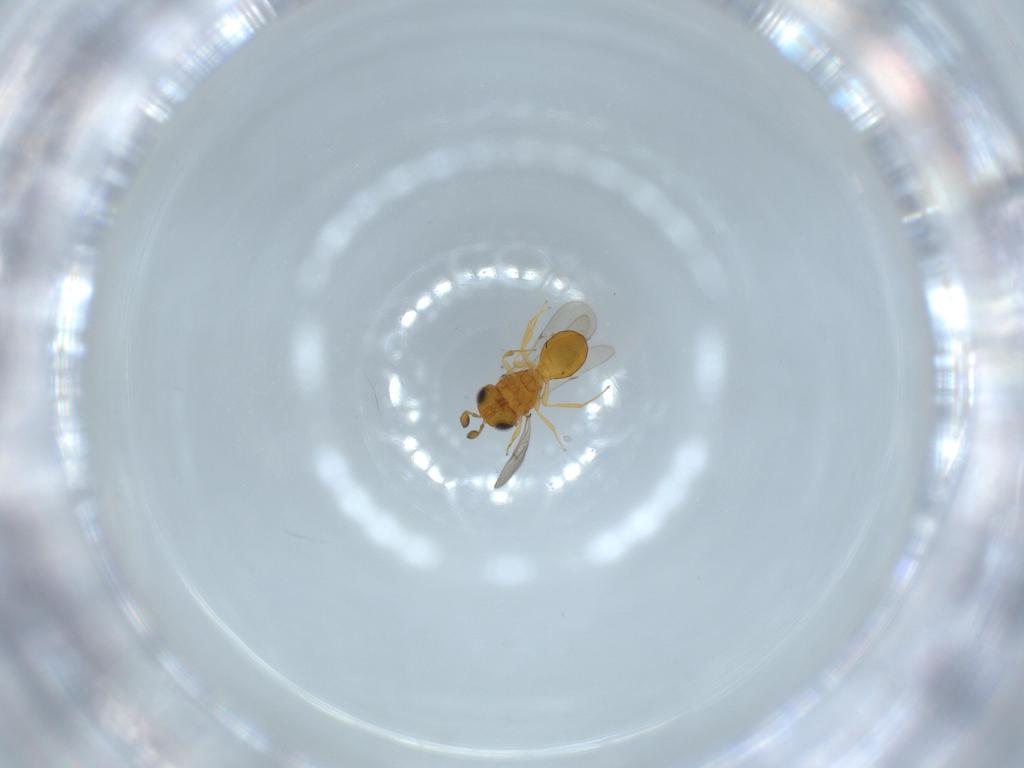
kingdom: Animalia
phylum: Arthropoda
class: Insecta
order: Hymenoptera
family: Scelionidae
